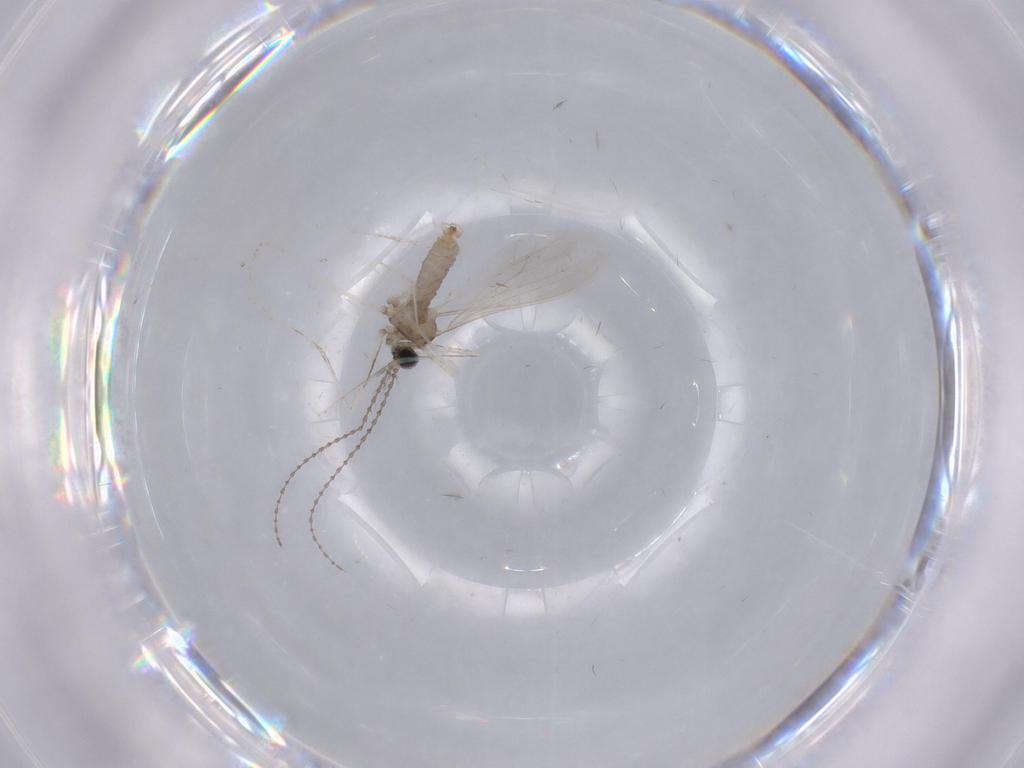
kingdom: Animalia
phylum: Arthropoda
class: Insecta
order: Diptera
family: Cecidomyiidae
